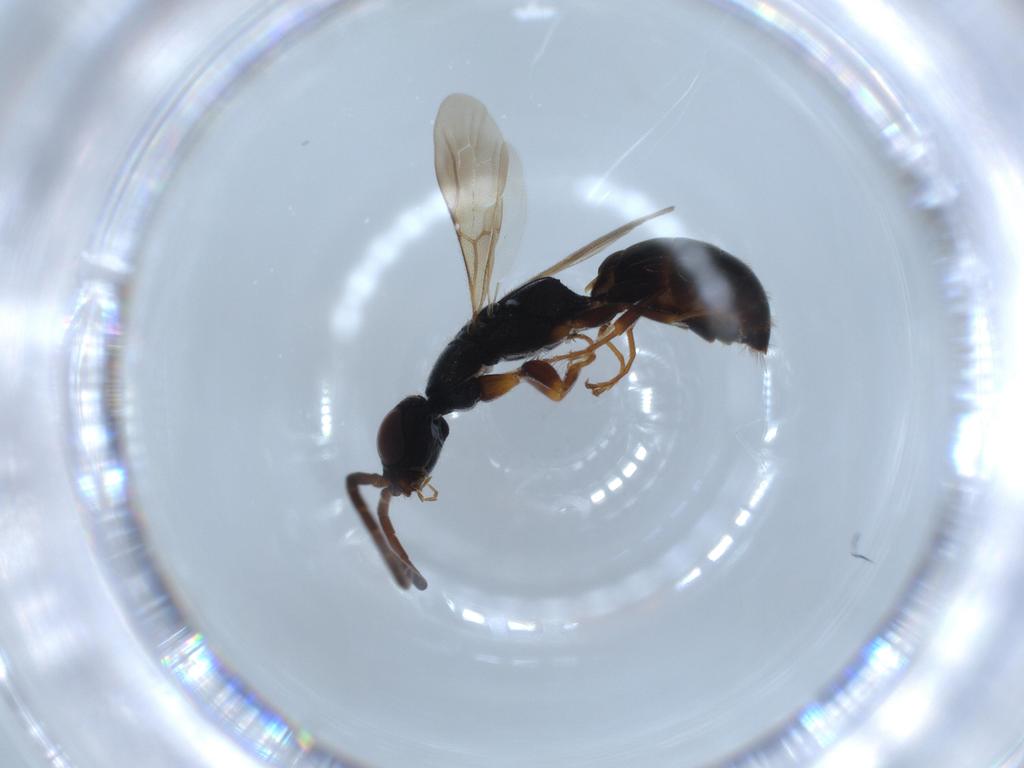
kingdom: Animalia
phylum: Arthropoda
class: Insecta
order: Hymenoptera
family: Bethylidae
